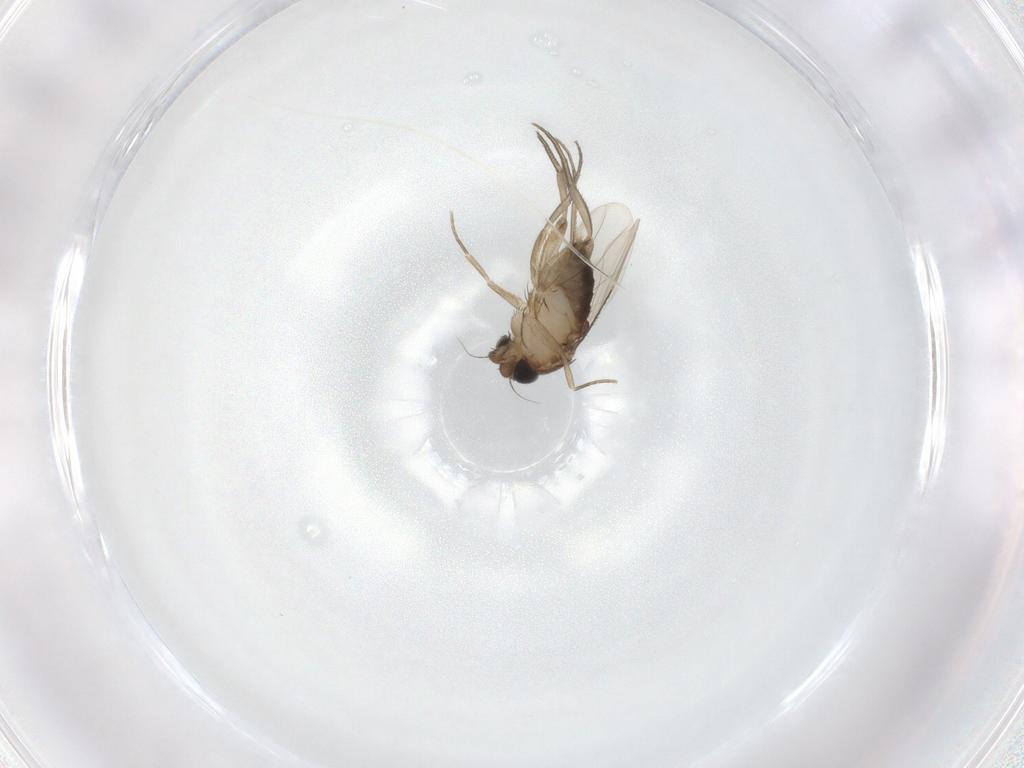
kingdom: Animalia
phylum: Arthropoda
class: Insecta
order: Diptera
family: Phoridae
